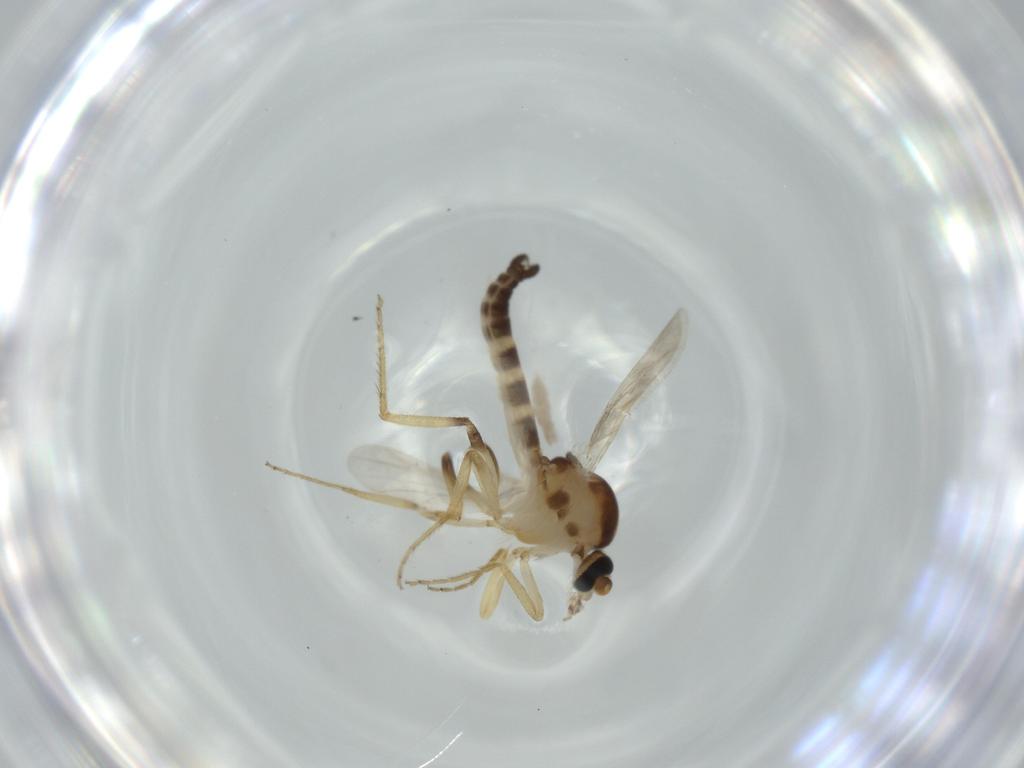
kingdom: Animalia
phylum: Arthropoda
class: Insecta
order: Diptera
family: Ceratopogonidae
